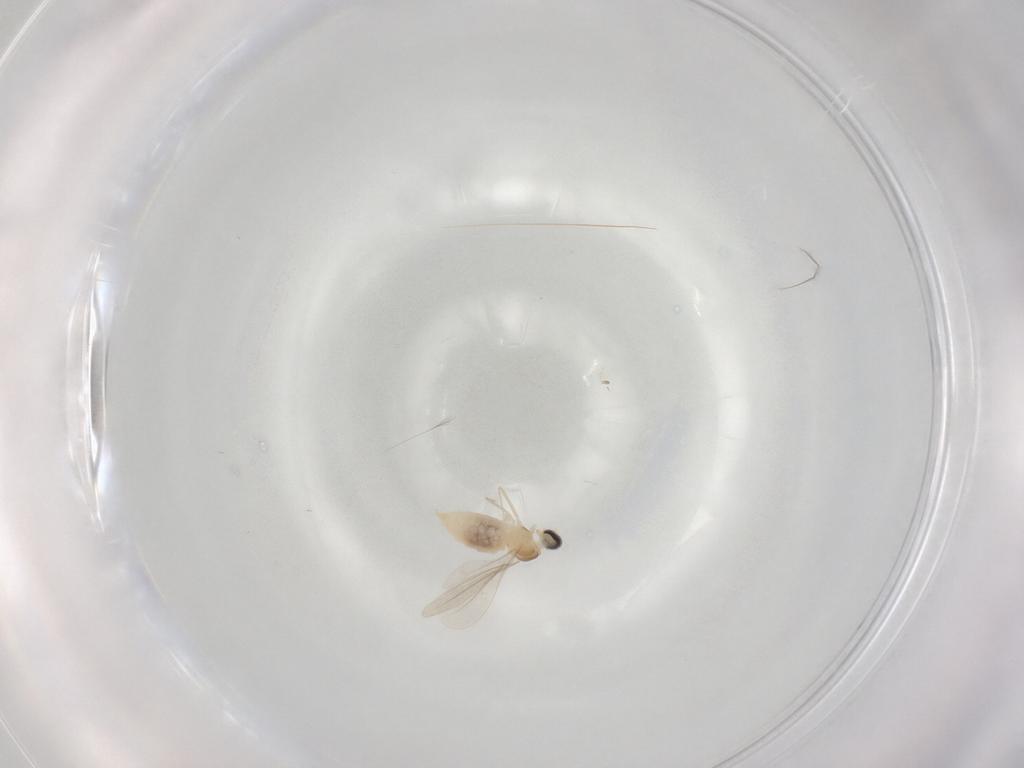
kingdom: Animalia
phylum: Arthropoda
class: Insecta
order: Diptera
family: Cecidomyiidae
